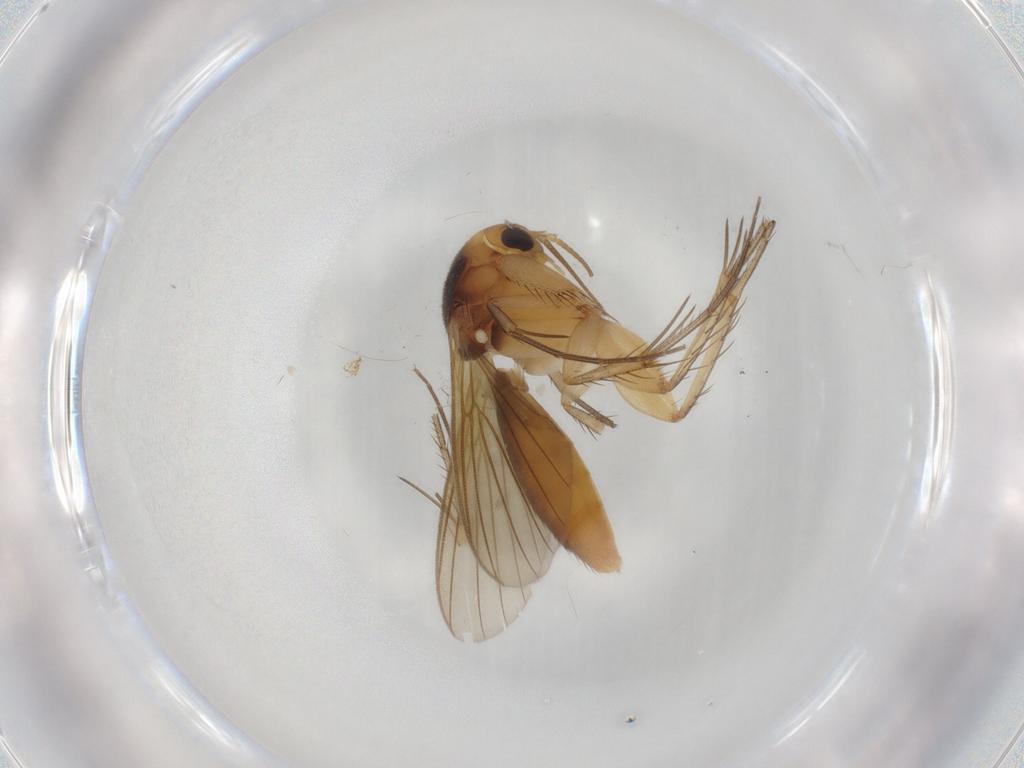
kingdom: Animalia
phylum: Arthropoda
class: Insecta
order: Diptera
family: Mycetophilidae
